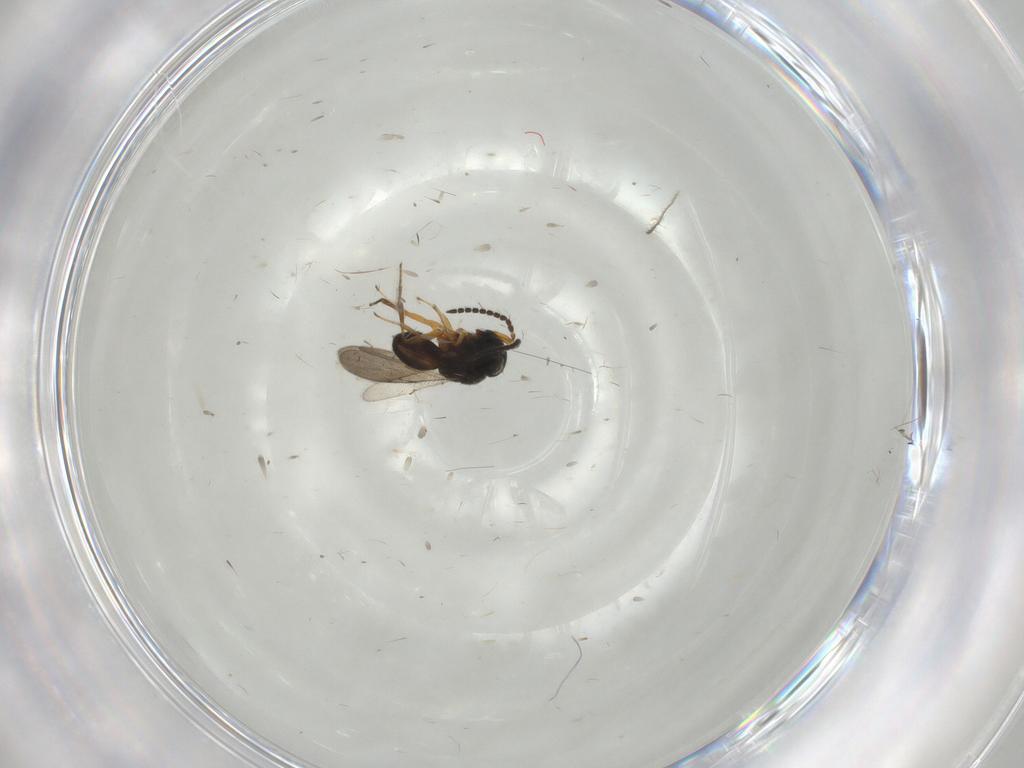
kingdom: Animalia
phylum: Arthropoda
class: Insecta
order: Hymenoptera
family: Scelionidae
